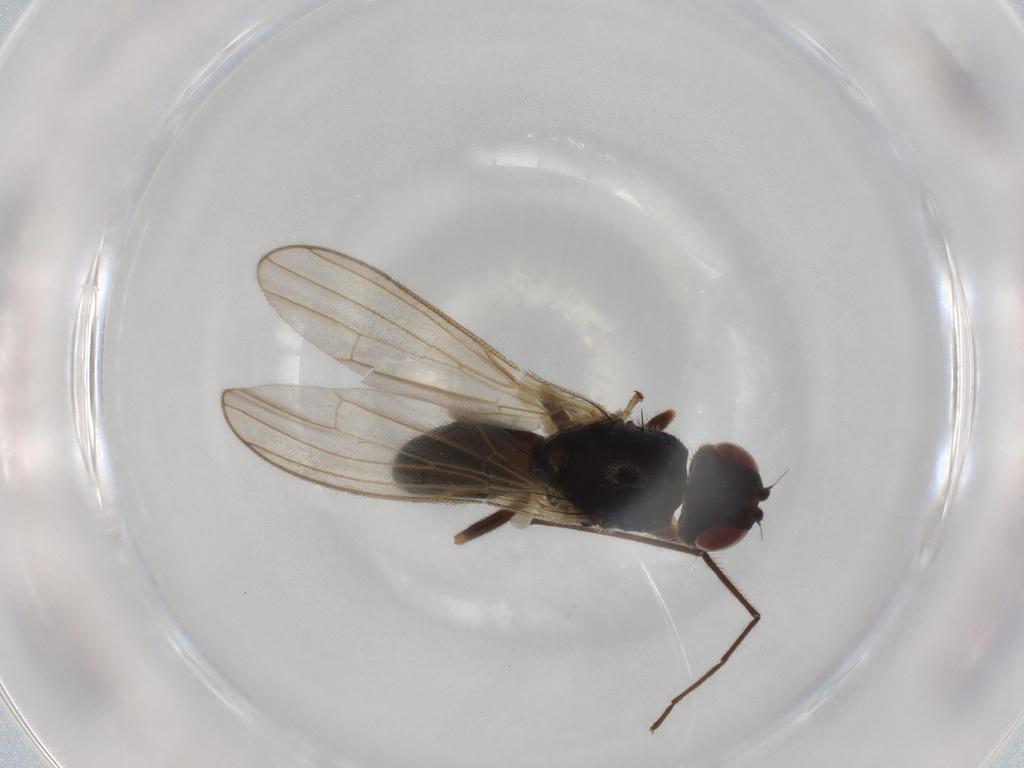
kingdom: Animalia
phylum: Arthropoda
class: Insecta
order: Diptera
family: Chironomidae
